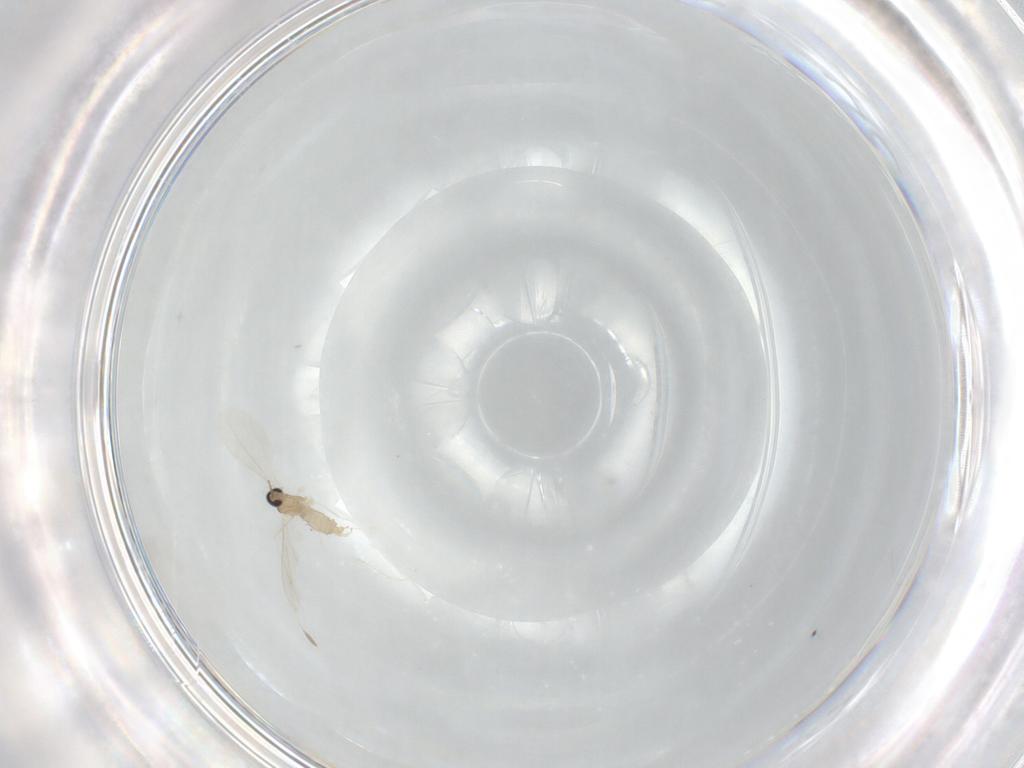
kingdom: Animalia
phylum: Arthropoda
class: Insecta
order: Diptera
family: Cecidomyiidae
